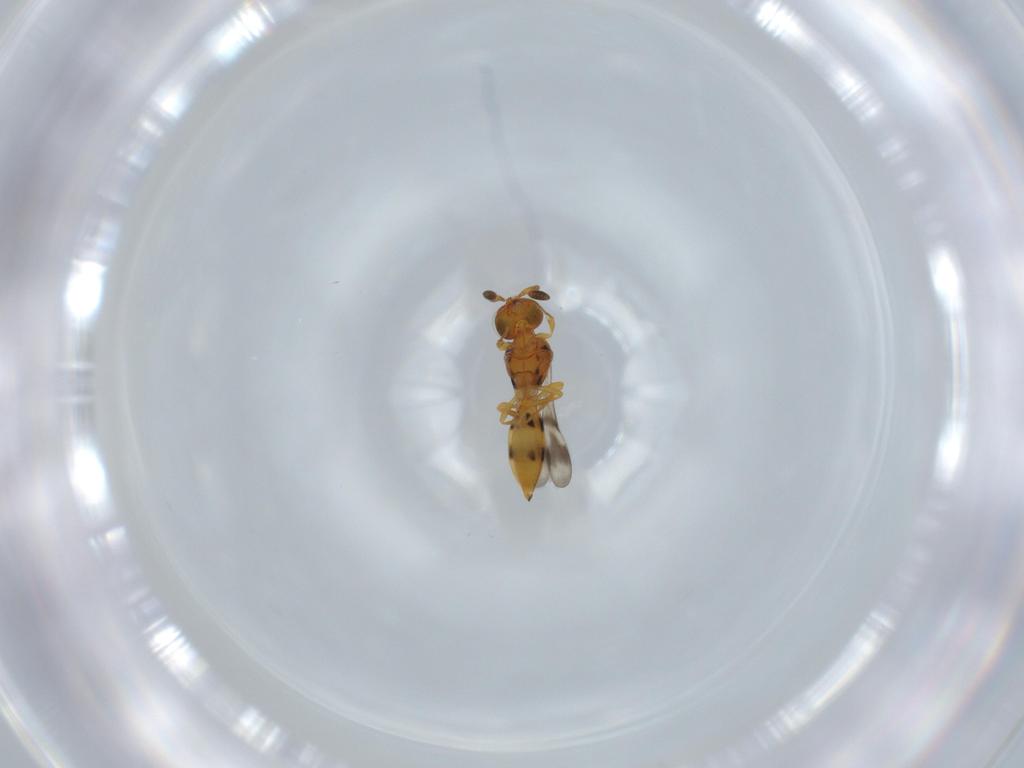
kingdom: Animalia
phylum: Arthropoda
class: Insecta
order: Hymenoptera
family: Scelionidae
